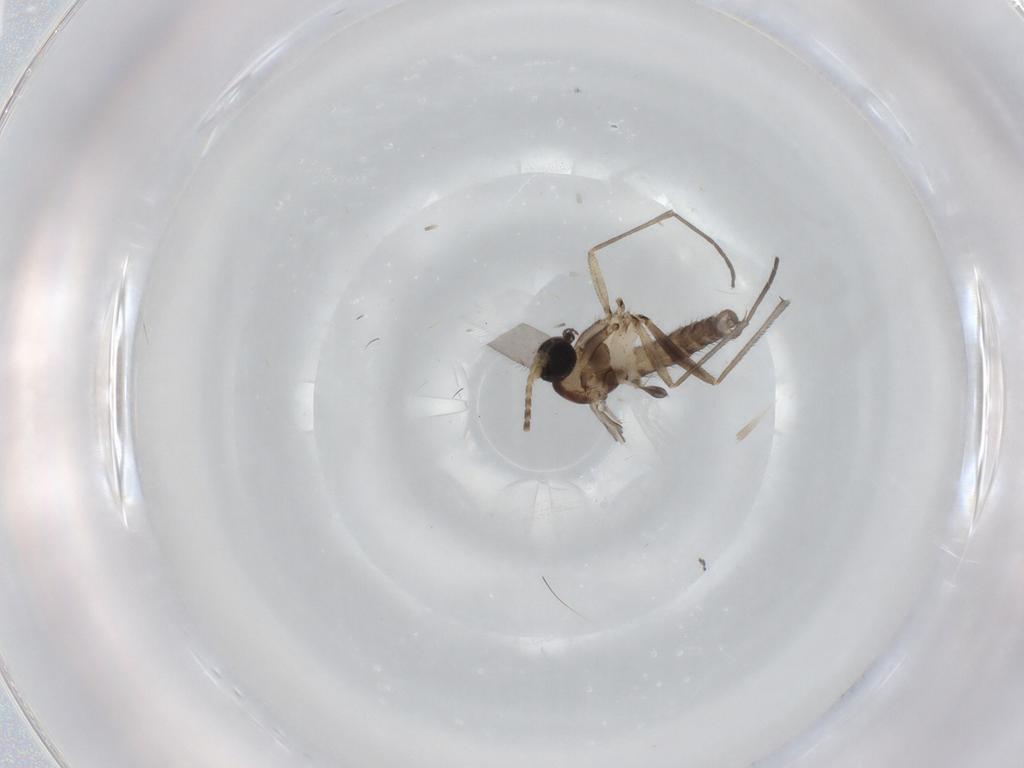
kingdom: Animalia
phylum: Arthropoda
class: Insecta
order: Diptera
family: Sciaridae
